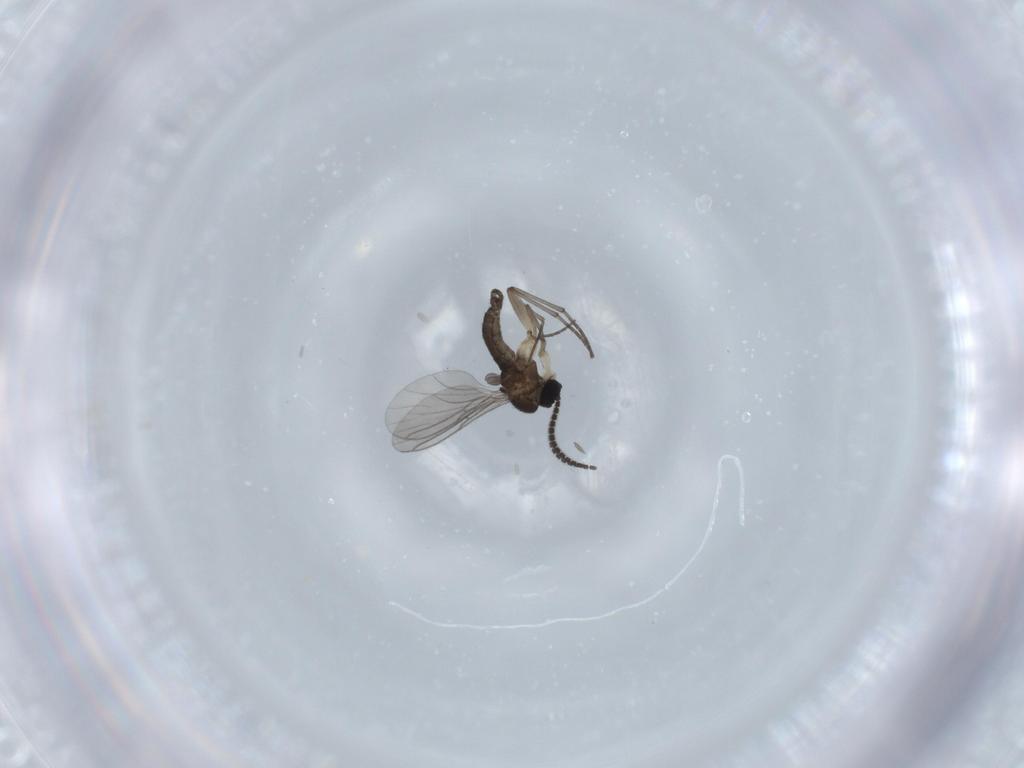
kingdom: Animalia
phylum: Arthropoda
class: Insecta
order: Diptera
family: Sciaridae
